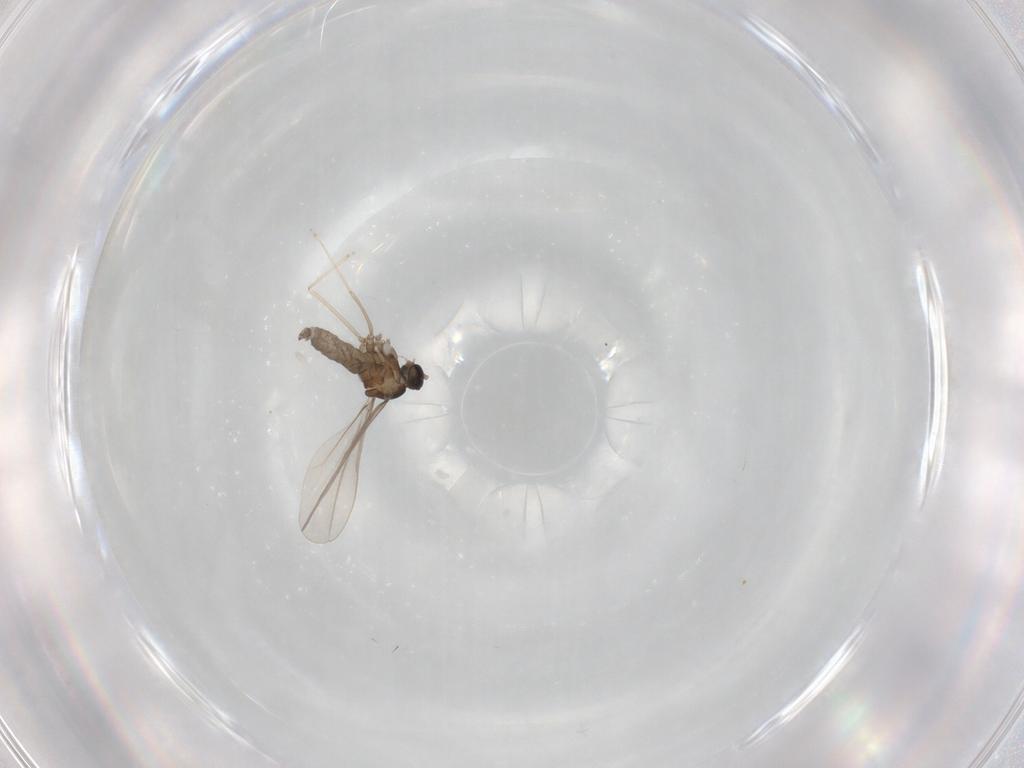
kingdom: Animalia
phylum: Arthropoda
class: Insecta
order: Diptera
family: Cecidomyiidae
